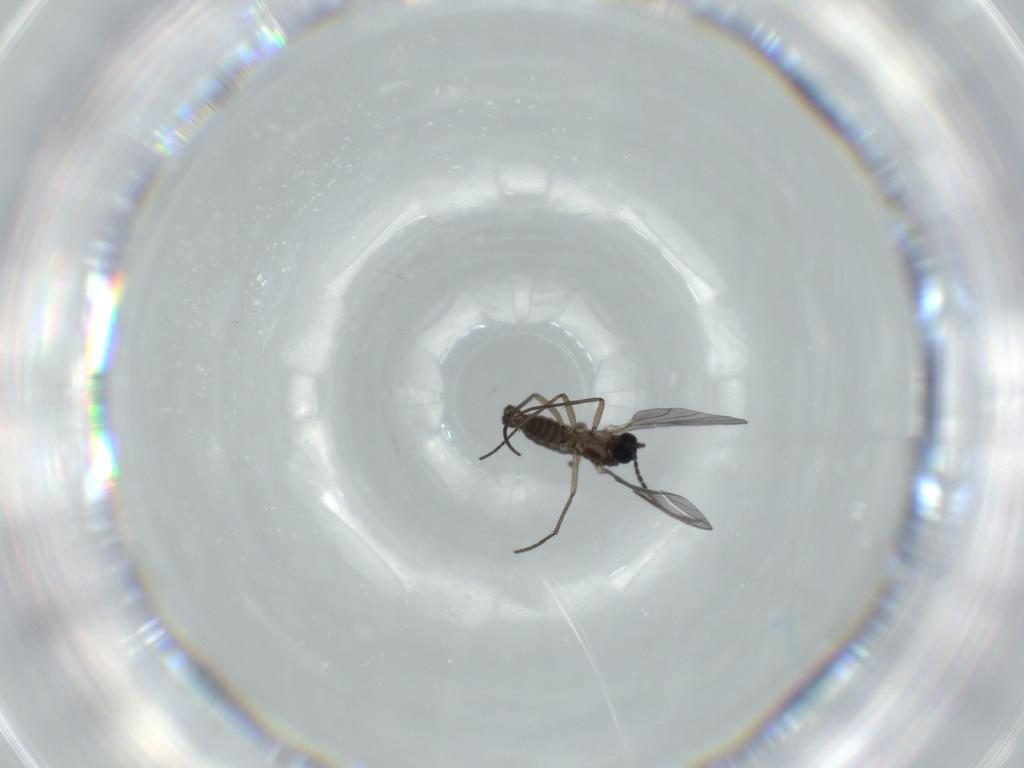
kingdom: Animalia
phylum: Arthropoda
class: Insecta
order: Diptera
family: Sciaridae
